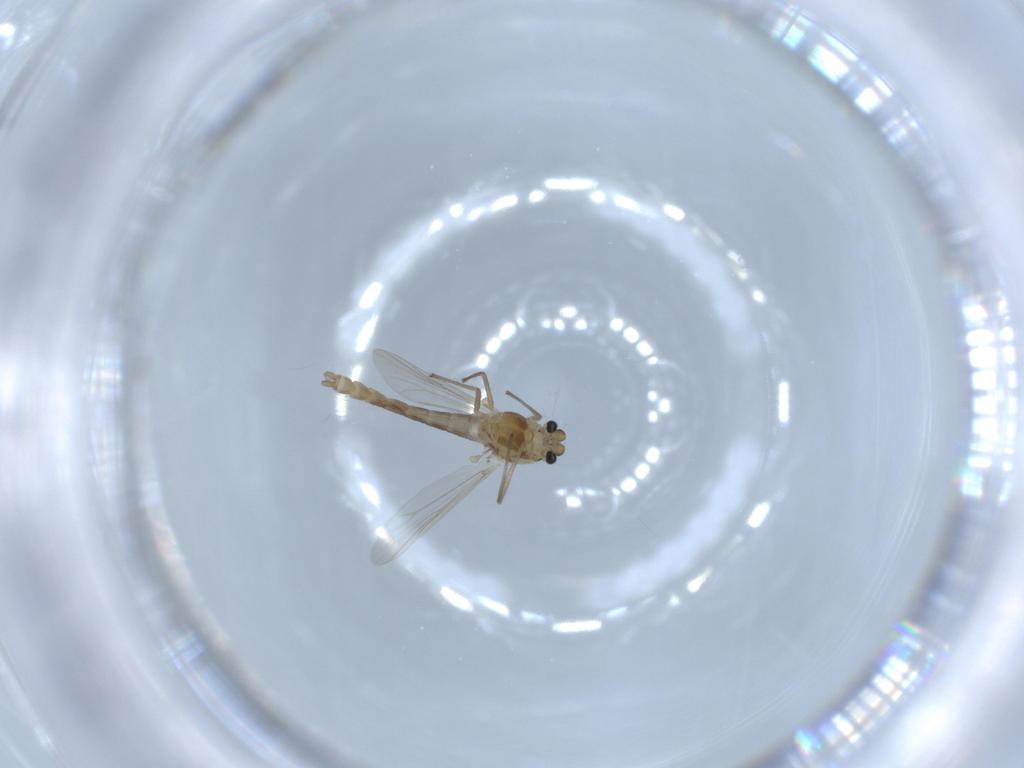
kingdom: Animalia
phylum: Arthropoda
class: Insecta
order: Diptera
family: Chironomidae
